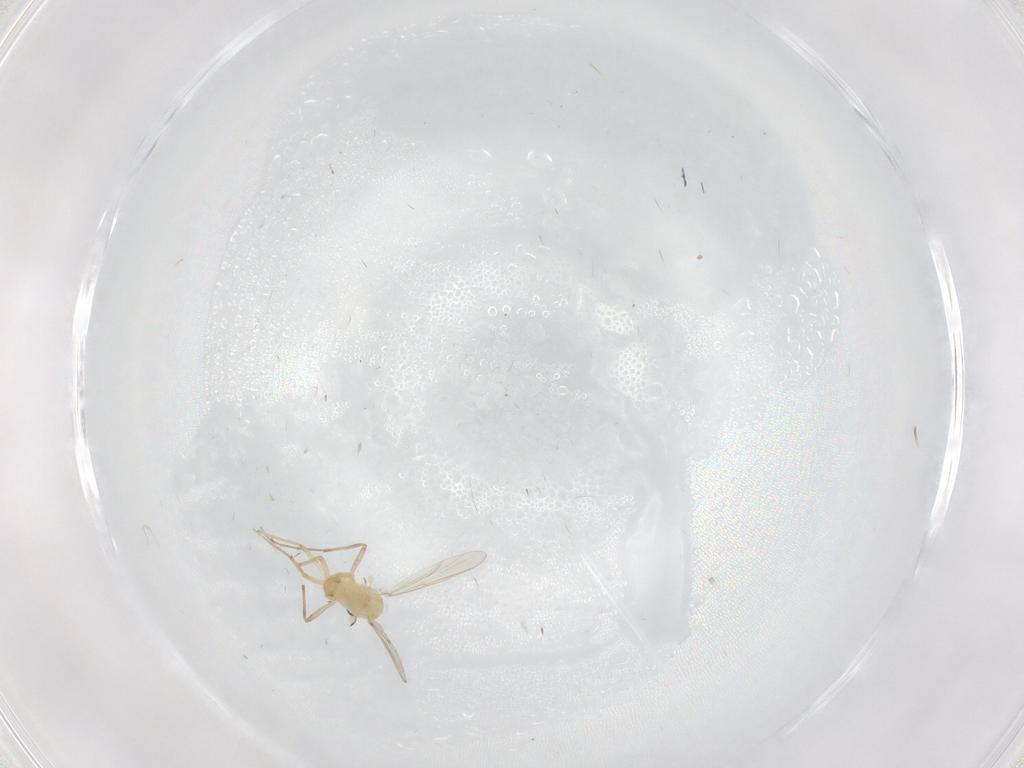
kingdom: Animalia
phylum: Arthropoda
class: Insecta
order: Diptera
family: Chironomidae
